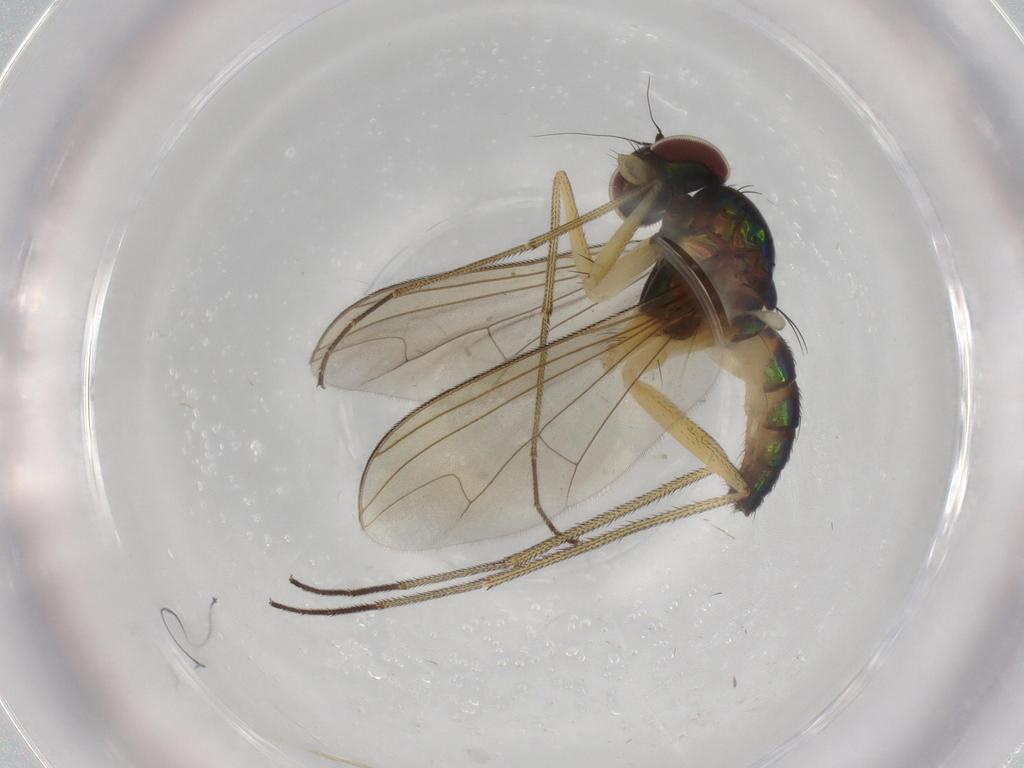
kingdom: Animalia
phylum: Arthropoda
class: Insecta
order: Diptera
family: Dolichopodidae
